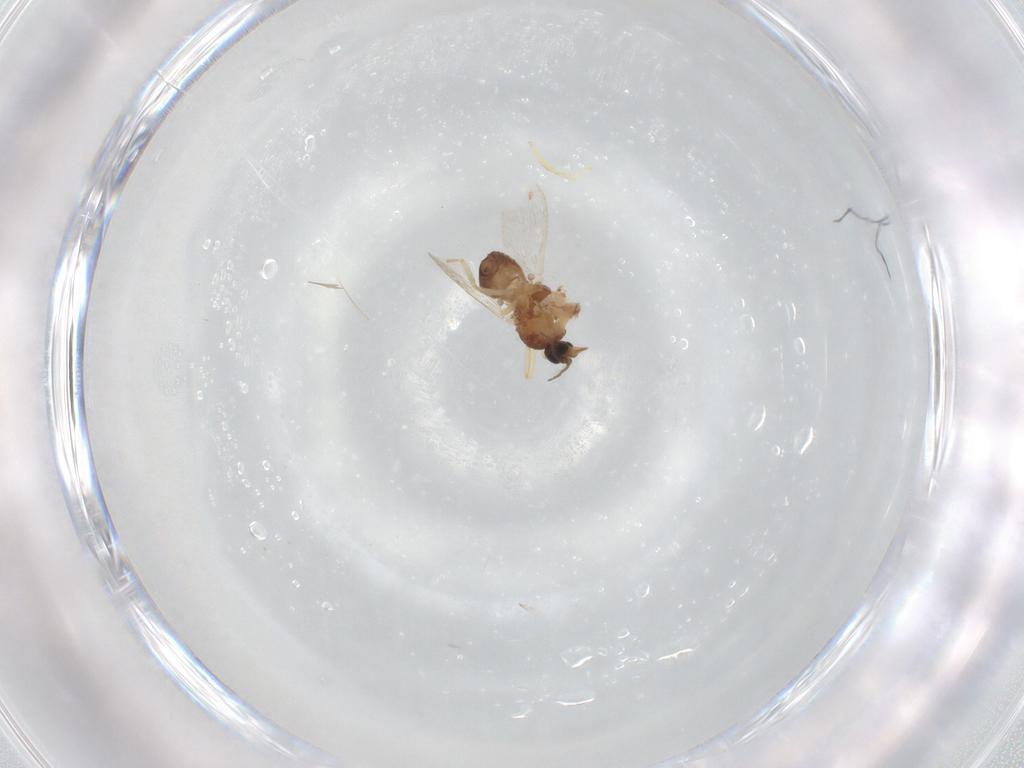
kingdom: Animalia
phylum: Arthropoda
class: Insecta
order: Diptera
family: Ceratopogonidae
